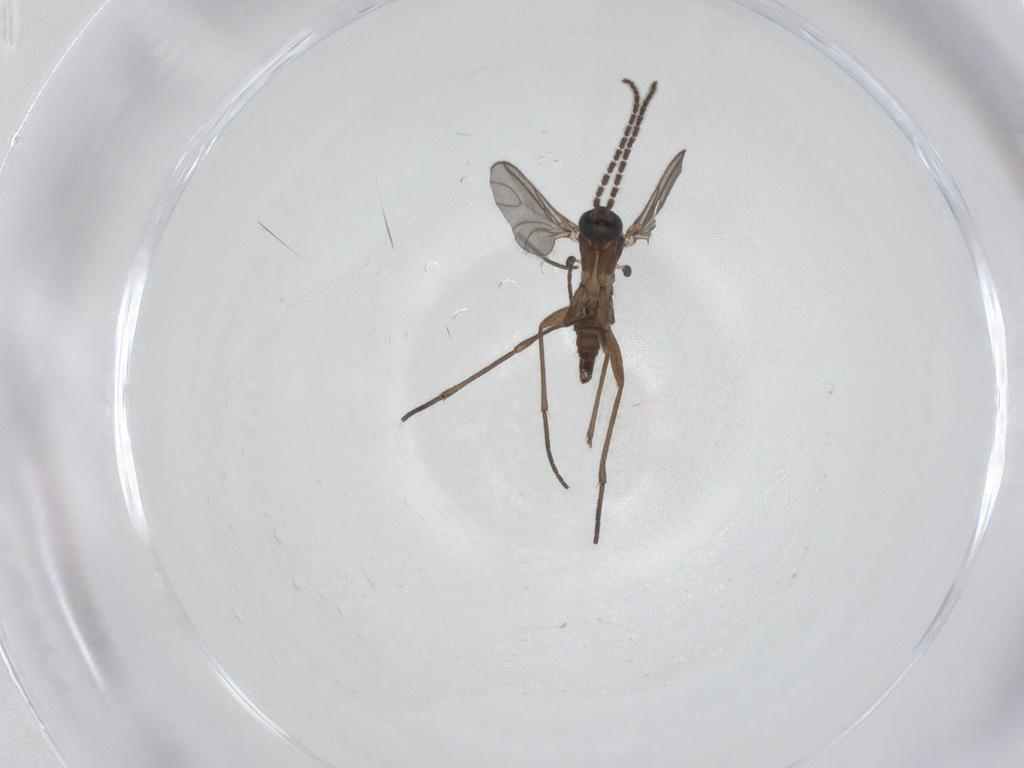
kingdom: Animalia
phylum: Arthropoda
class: Insecta
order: Diptera
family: Sciaridae
